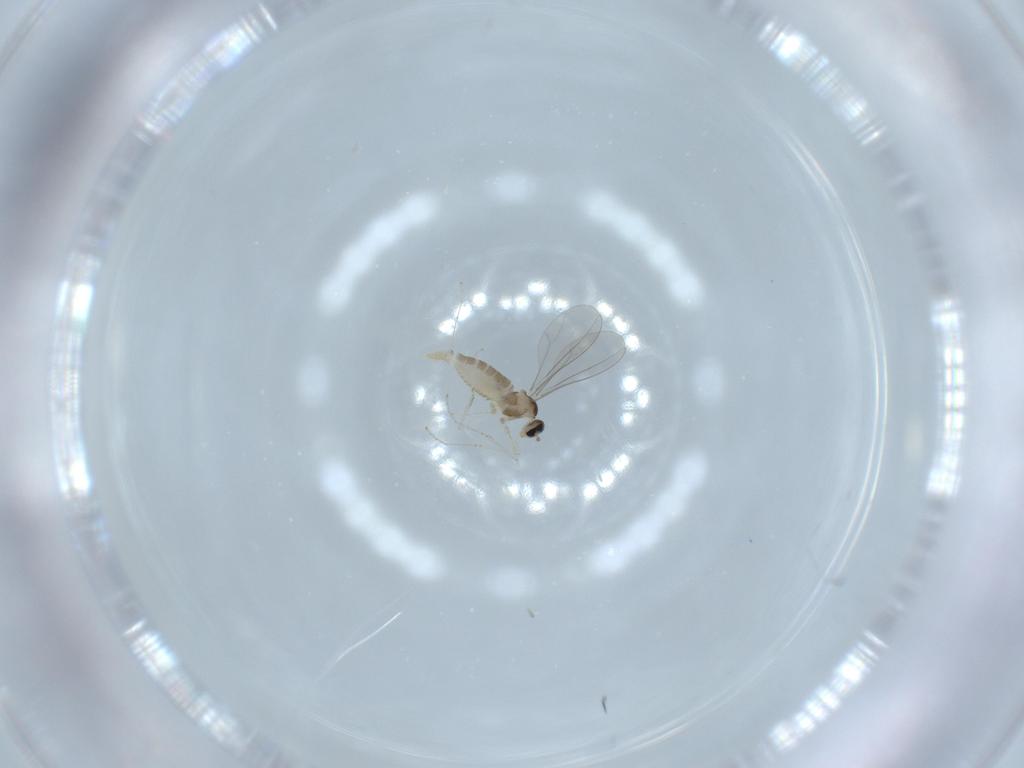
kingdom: Animalia
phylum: Arthropoda
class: Insecta
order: Diptera
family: Cecidomyiidae
